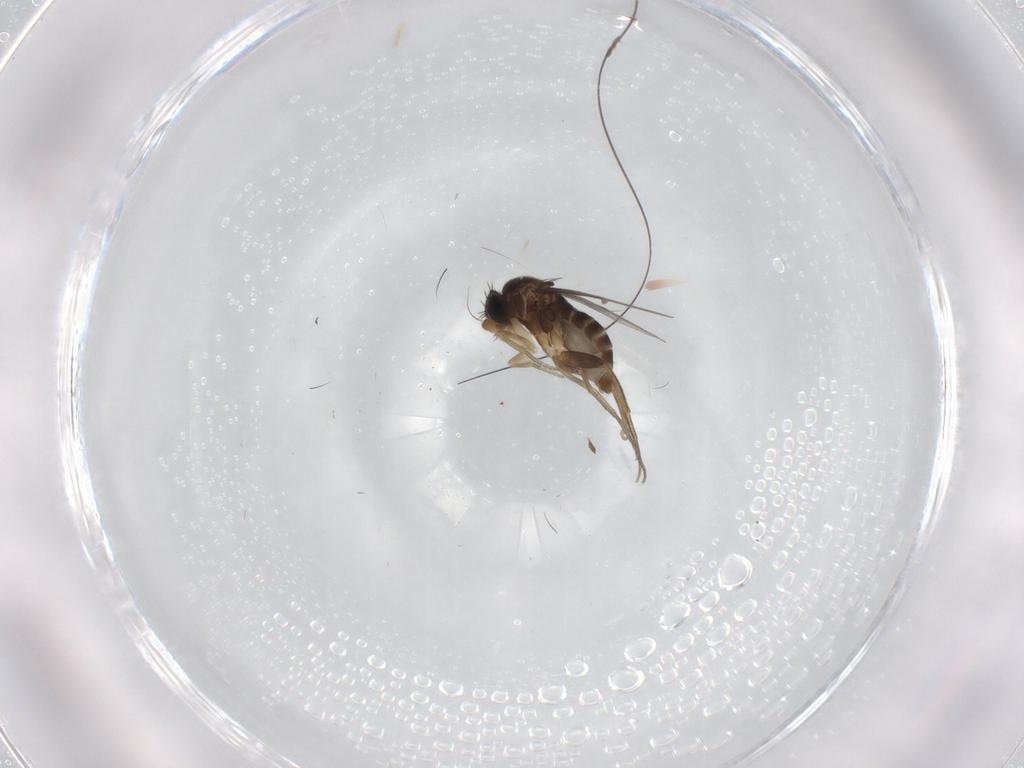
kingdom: Animalia
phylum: Arthropoda
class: Insecta
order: Diptera
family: Phoridae
